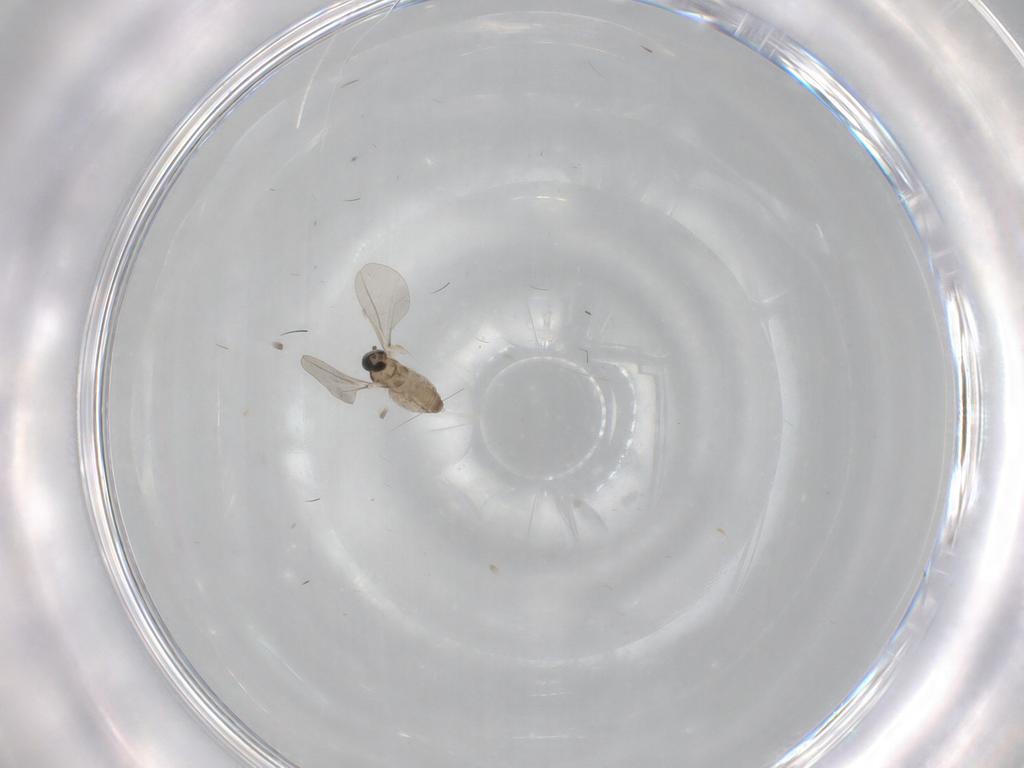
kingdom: Animalia
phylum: Arthropoda
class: Insecta
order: Diptera
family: Cecidomyiidae
